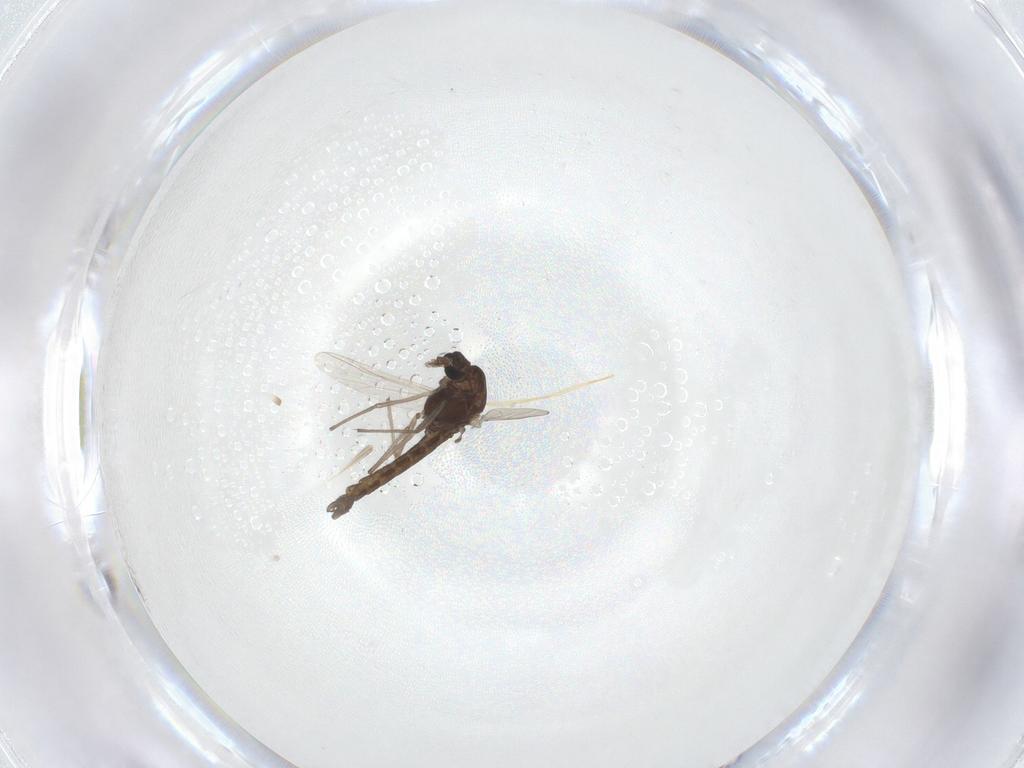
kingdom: Animalia
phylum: Arthropoda
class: Insecta
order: Diptera
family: Chironomidae
